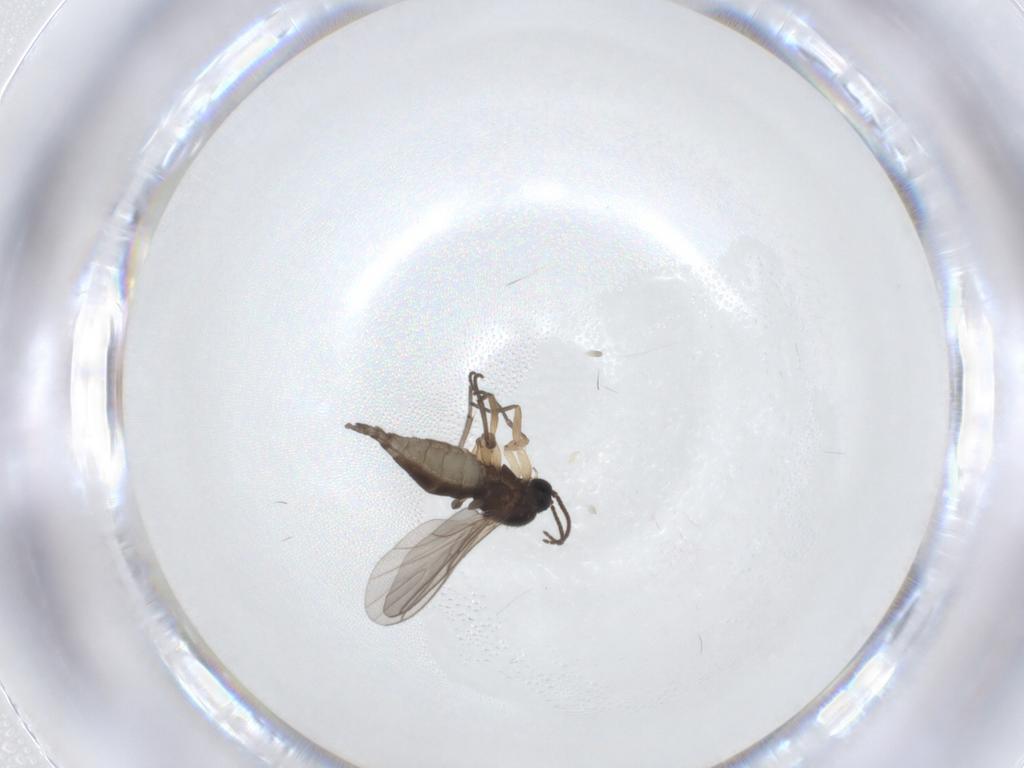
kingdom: Animalia
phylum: Arthropoda
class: Insecta
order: Diptera
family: Sciaridae
